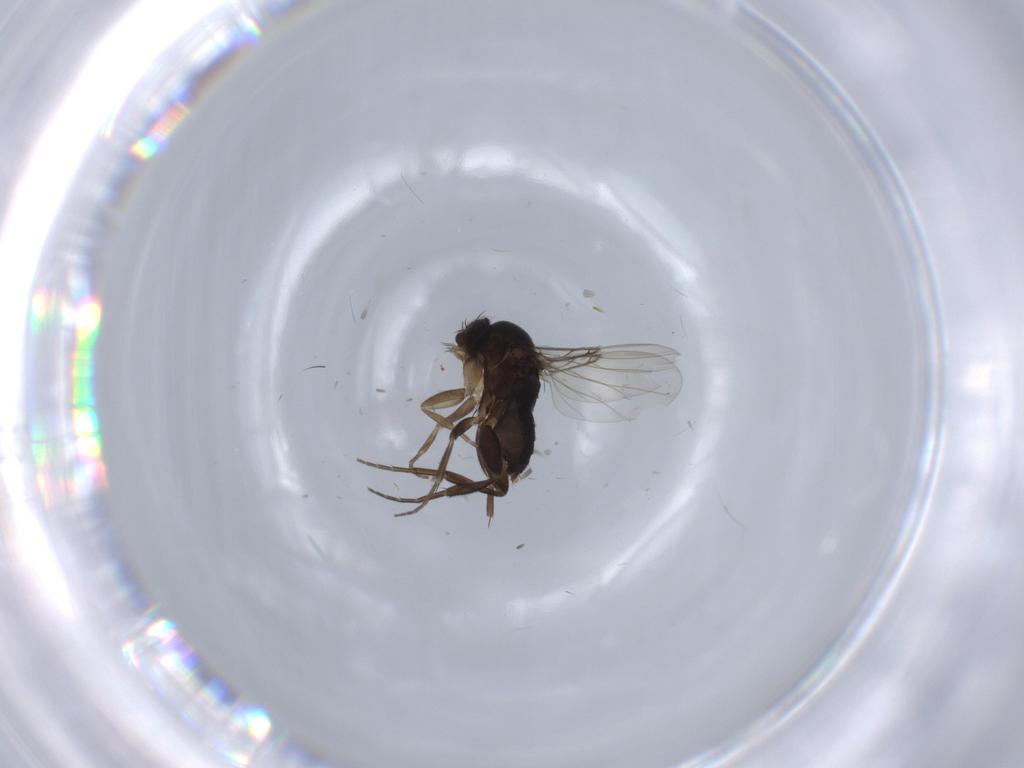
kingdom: Animalia
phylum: Arthropoda
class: Insecta
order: Diptera
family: Phoridae
